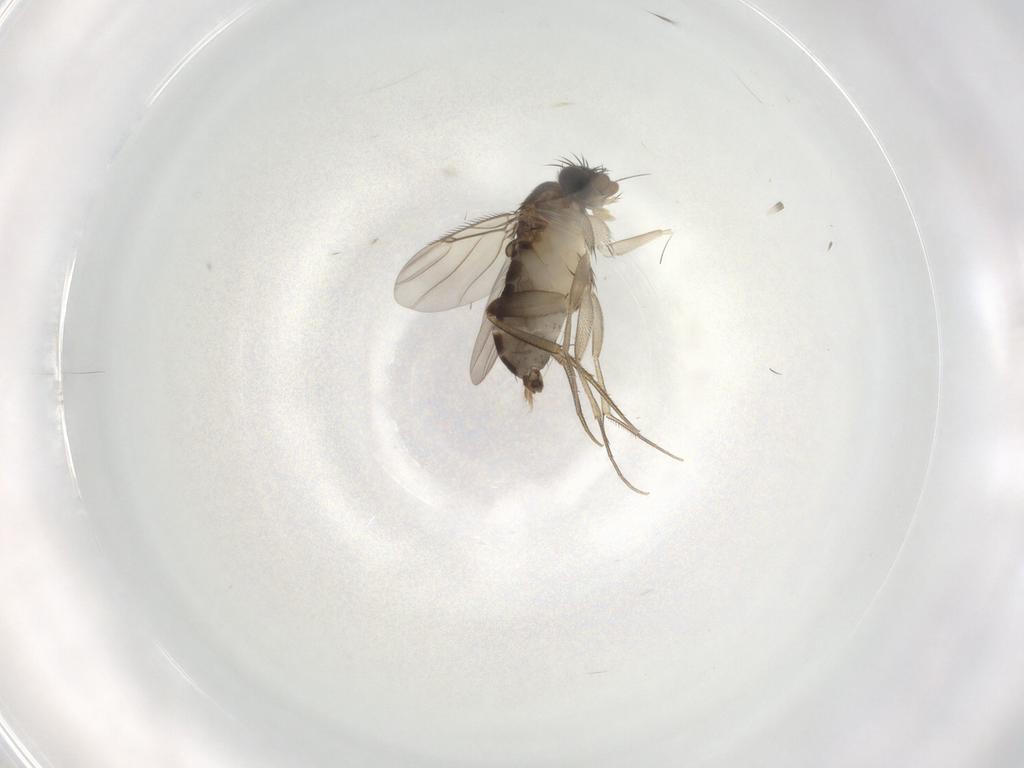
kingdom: Animalia
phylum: Arthropoda
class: Insecta
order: Diptera
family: Phoridae
